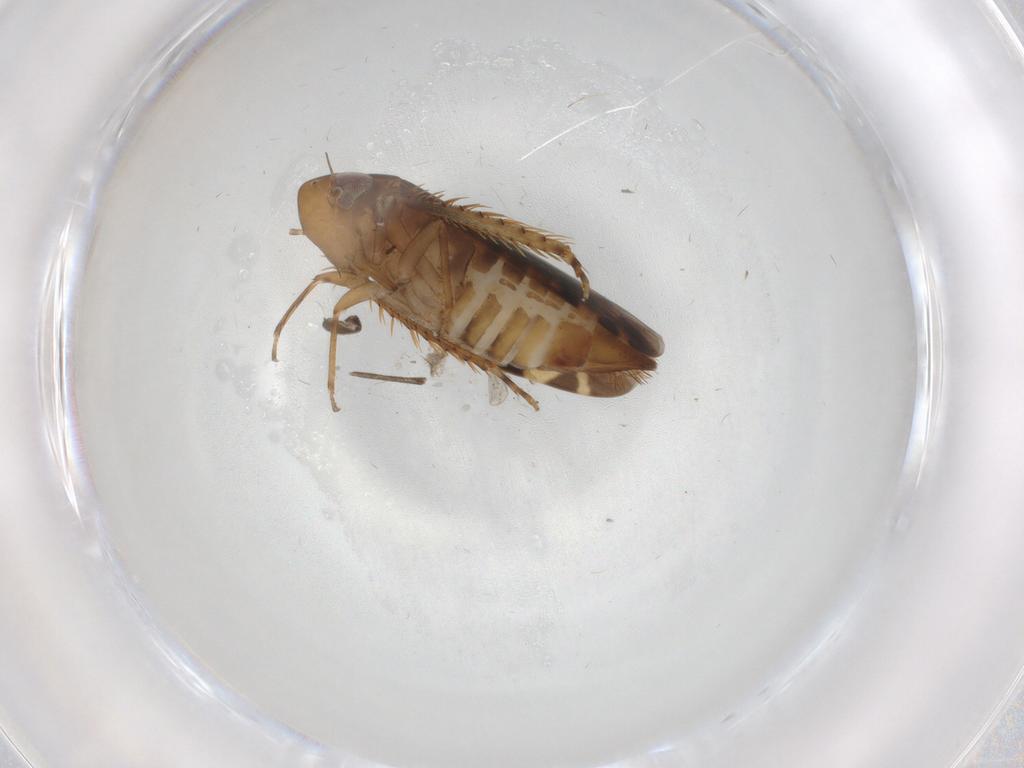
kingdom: Animalia
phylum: Arthropoda
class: Insecta
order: Hemiptera
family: Cicadellidae
